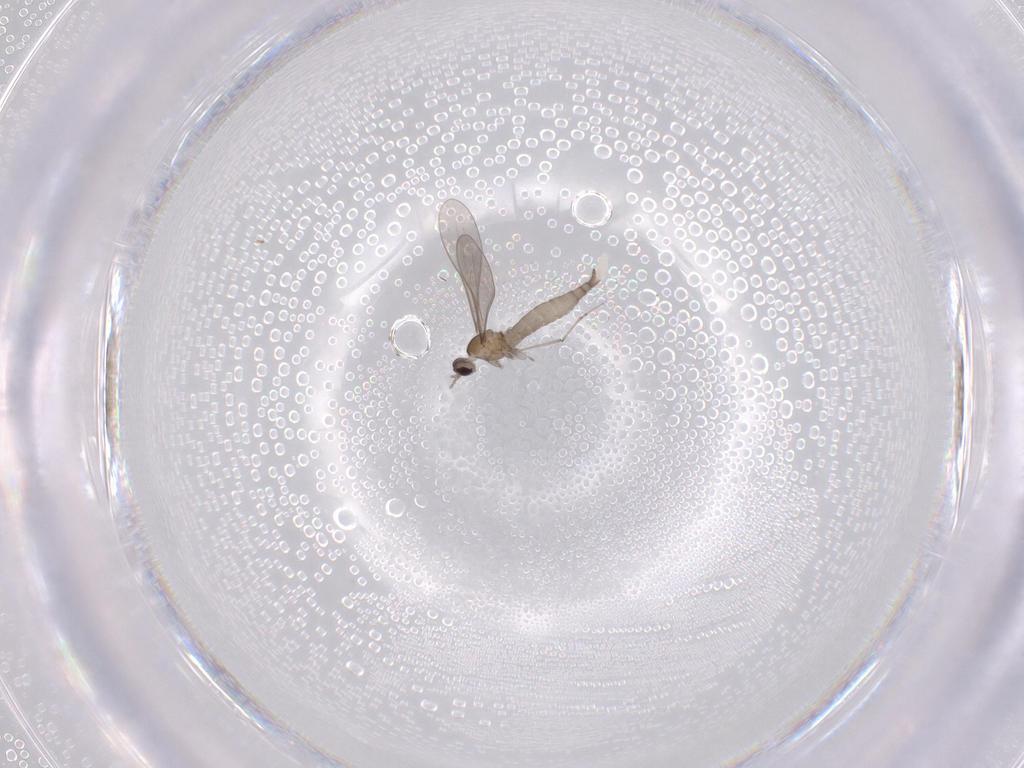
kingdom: Animalia
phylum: Arthropoda
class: Insecta
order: Diptera
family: Cecidomyiidae
